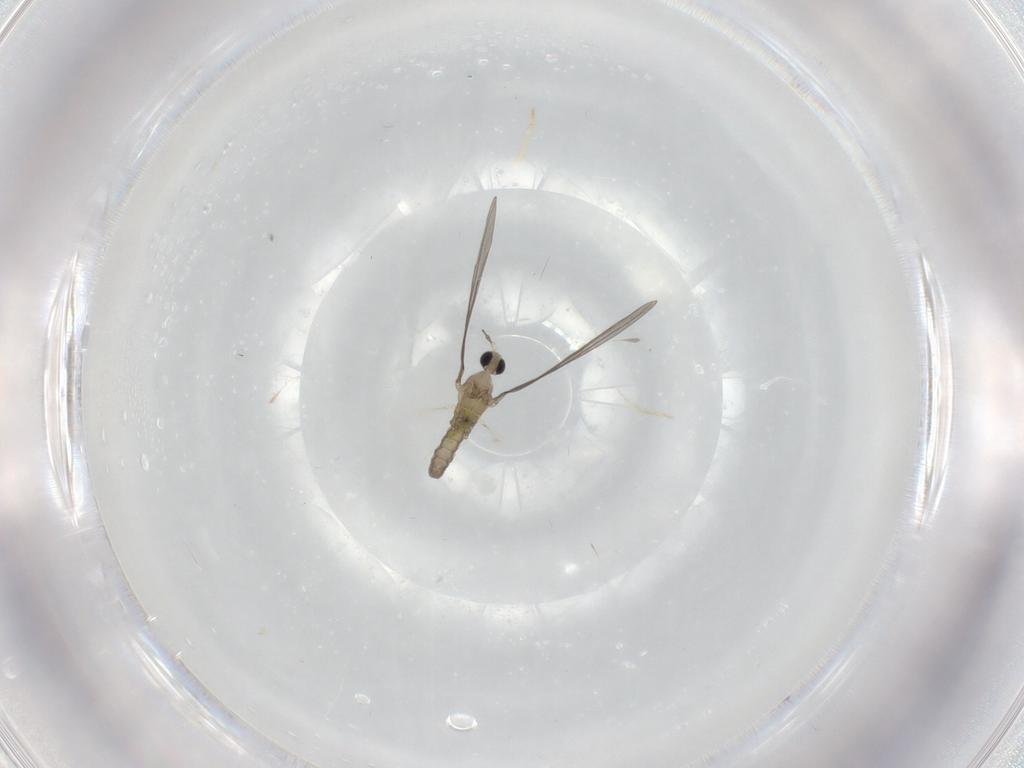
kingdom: Animalia
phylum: Arthropoda
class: Insecta
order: Diptera
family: Cecidomyiidae
